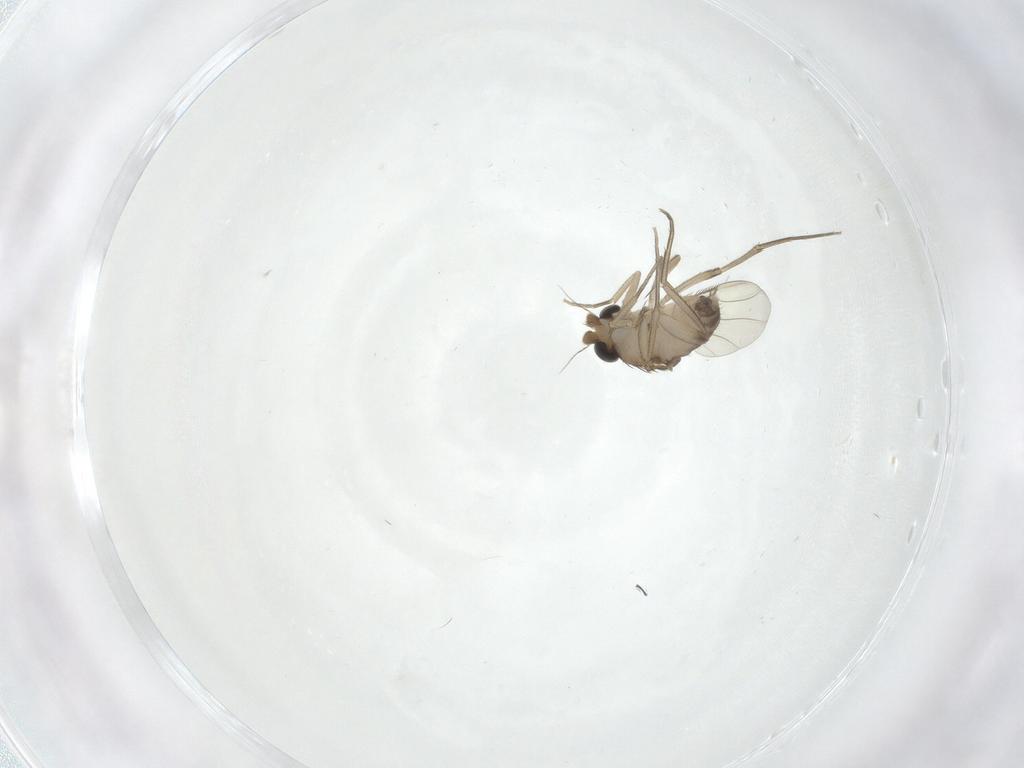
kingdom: Animalia
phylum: Arthropoda
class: Insecta
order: Diptera
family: Phoridae
